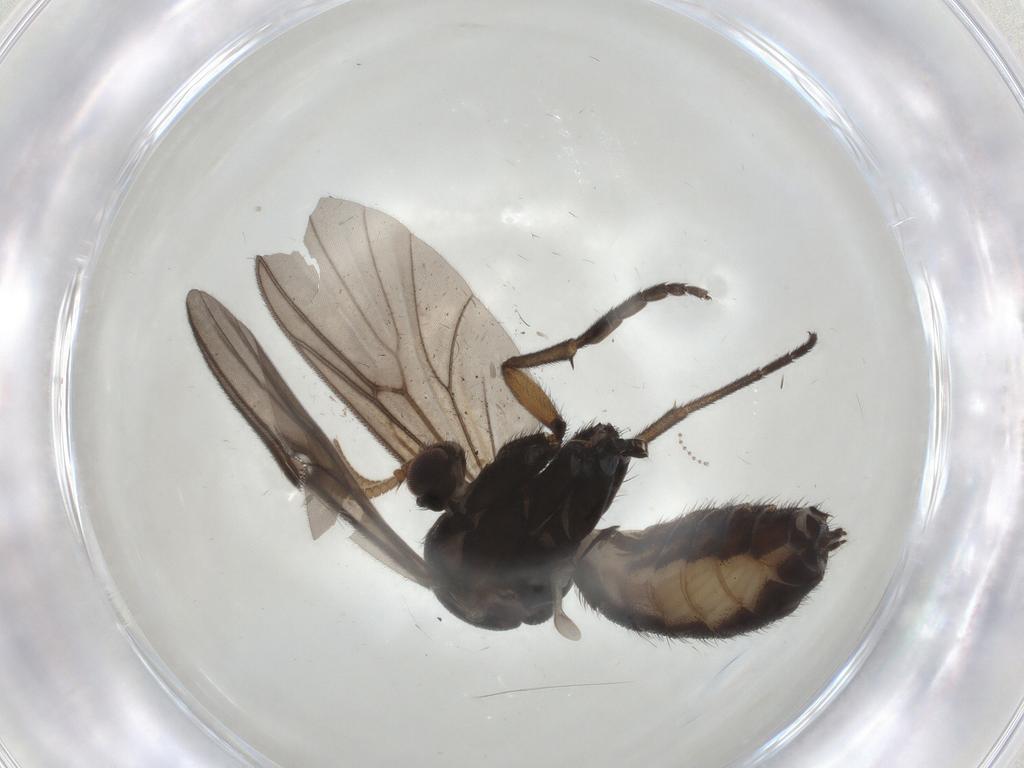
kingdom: Animalia
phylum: Arthropoda
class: Insecta
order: Diptera
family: Mycetophilidae
